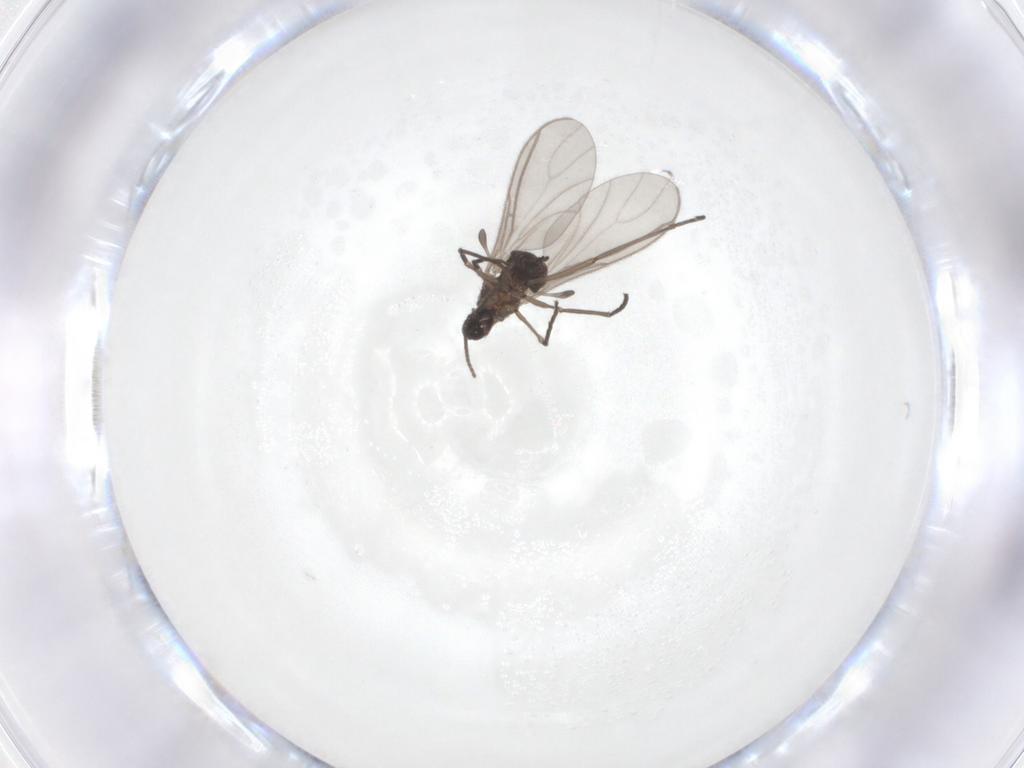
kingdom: Animalia
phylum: Arthropoda
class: Insecta
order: Diptera
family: Sciaridae
